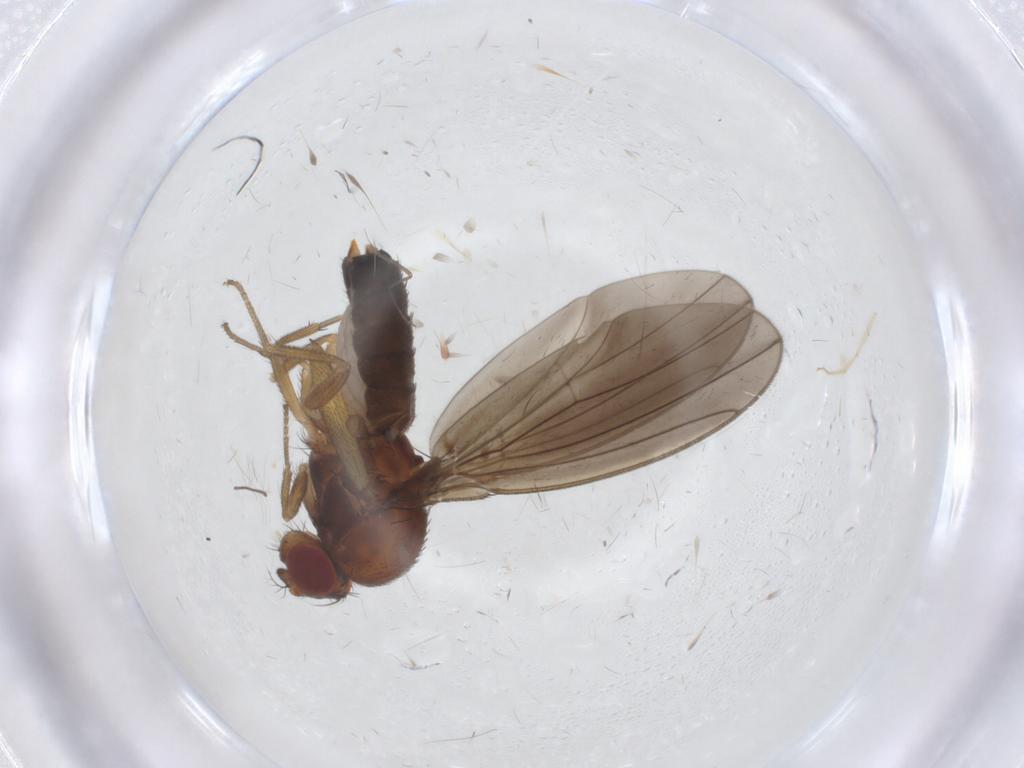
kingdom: Animalia
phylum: Arthropoda
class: Insecta
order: Diptera
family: Drosophilidae
